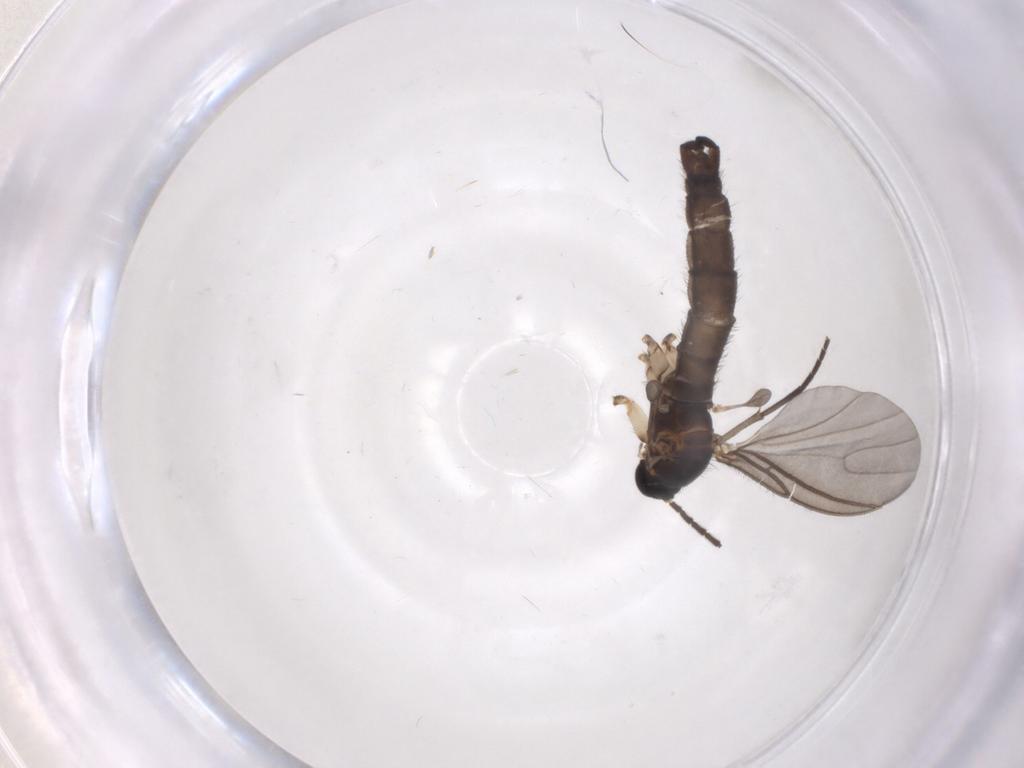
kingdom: Animalia
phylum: Arthropoda
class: Insecta
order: Diptera
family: Sciaridae
